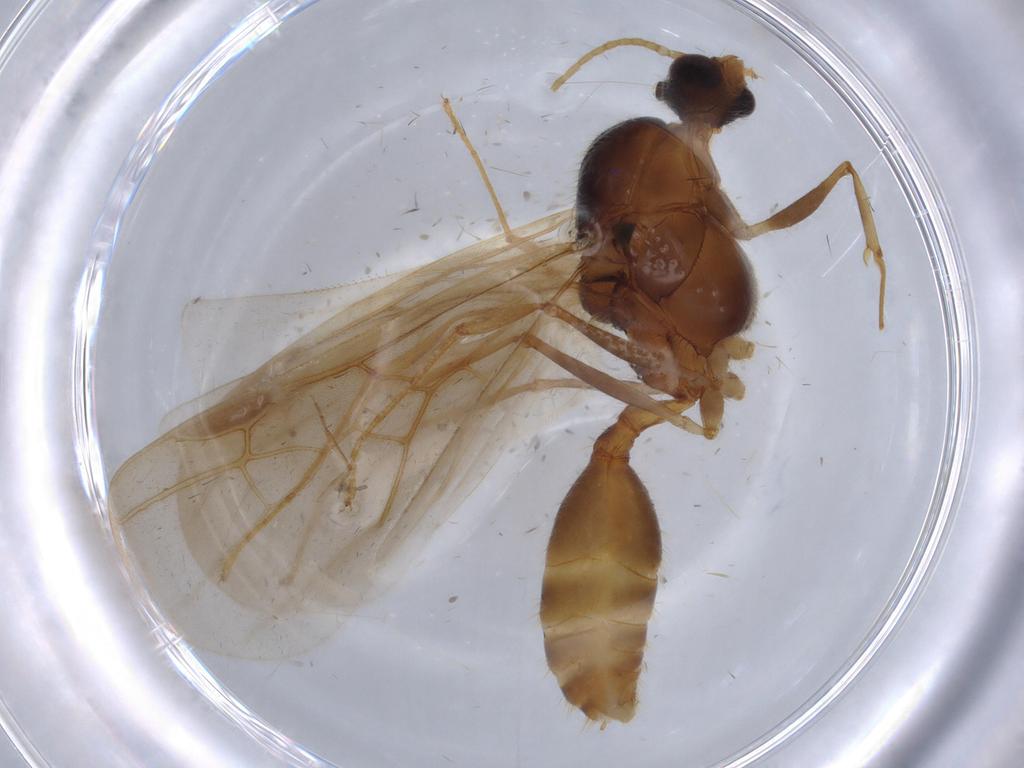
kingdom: Animalia
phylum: Arthropoda
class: Insecta
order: Hymenoptera
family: Formicidae
